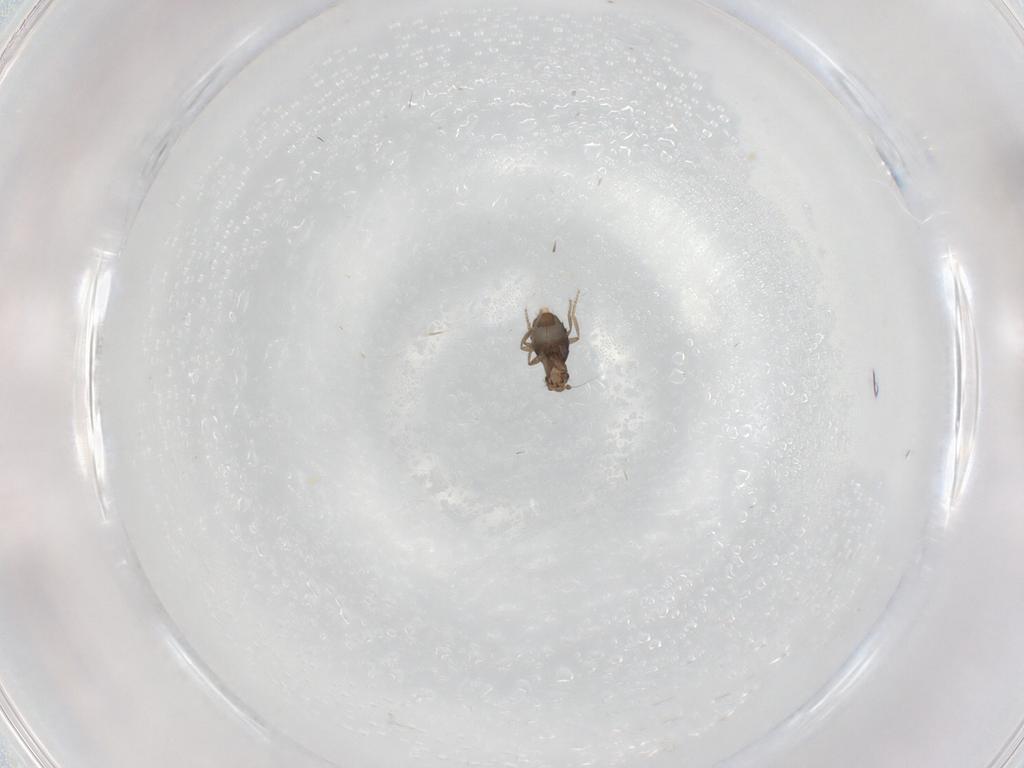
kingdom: Animalia
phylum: Arthropoda
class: Insecta
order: Diptera
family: Phoridae
